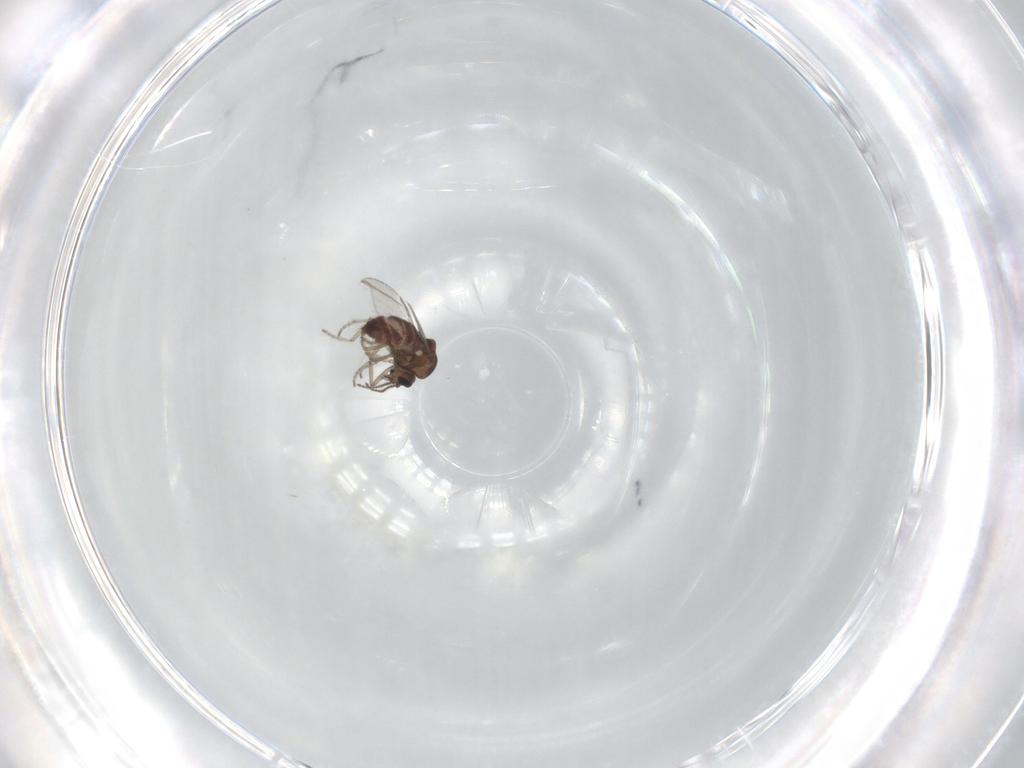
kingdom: Animalia
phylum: Arthropoda
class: Insecta
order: Diptera
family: Ceratopogonidae
